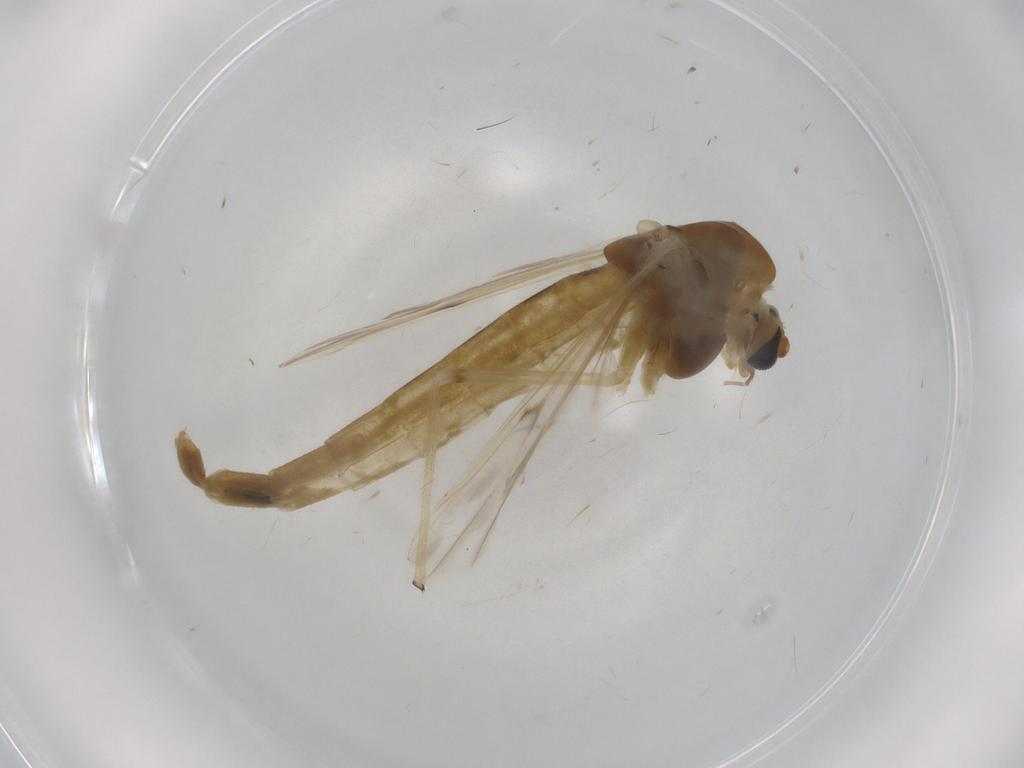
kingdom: Animalia
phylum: Arthropoda
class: Insecta
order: Diptera
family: Chironomidae
